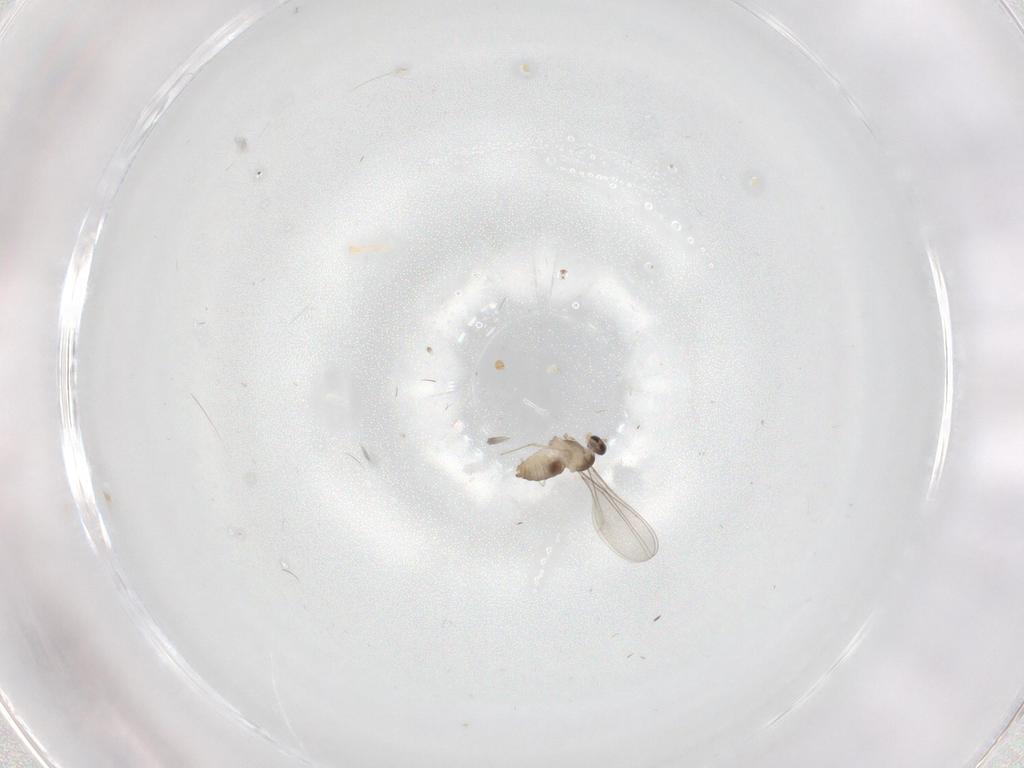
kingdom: Animalia
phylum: Arthropoda
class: Insecta
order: Diptera
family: Cecidomyiidae
